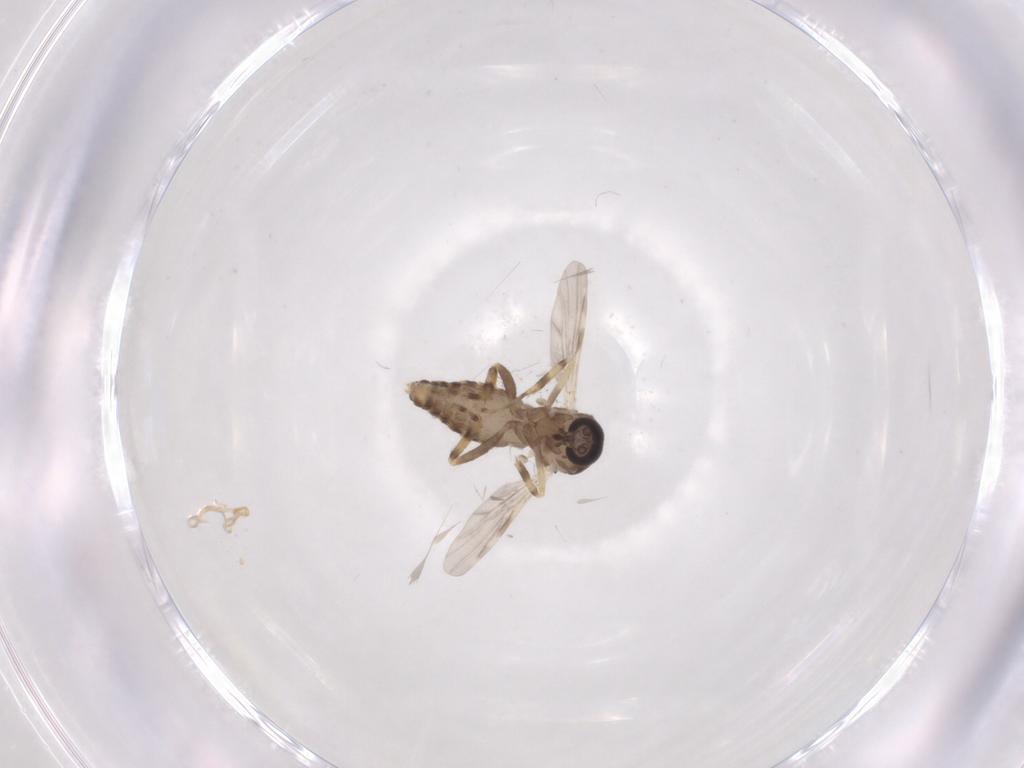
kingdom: Animalia
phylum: Arthropoda
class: Insecta
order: Diptera
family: Ceratopogonidae
